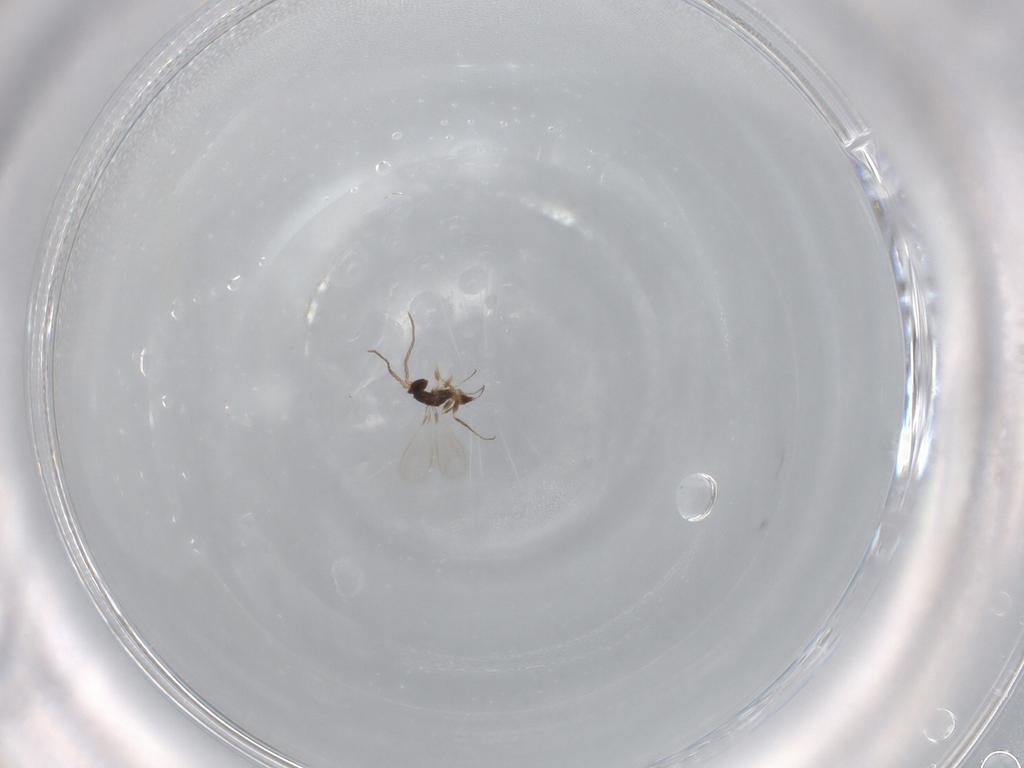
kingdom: Animalia
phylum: Arthropoda
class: Insecta
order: Hymenoptera
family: Mymaridae
